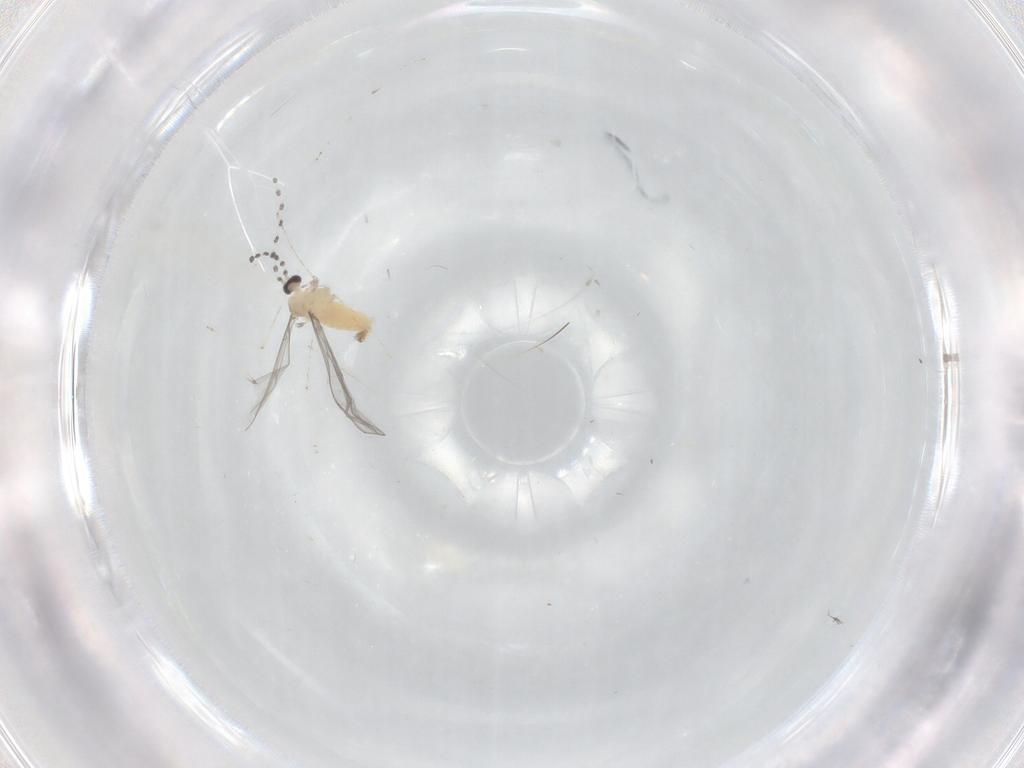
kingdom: Animalia
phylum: Arthropoda
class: Insecta
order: Diptera
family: Cecidomyiidae
